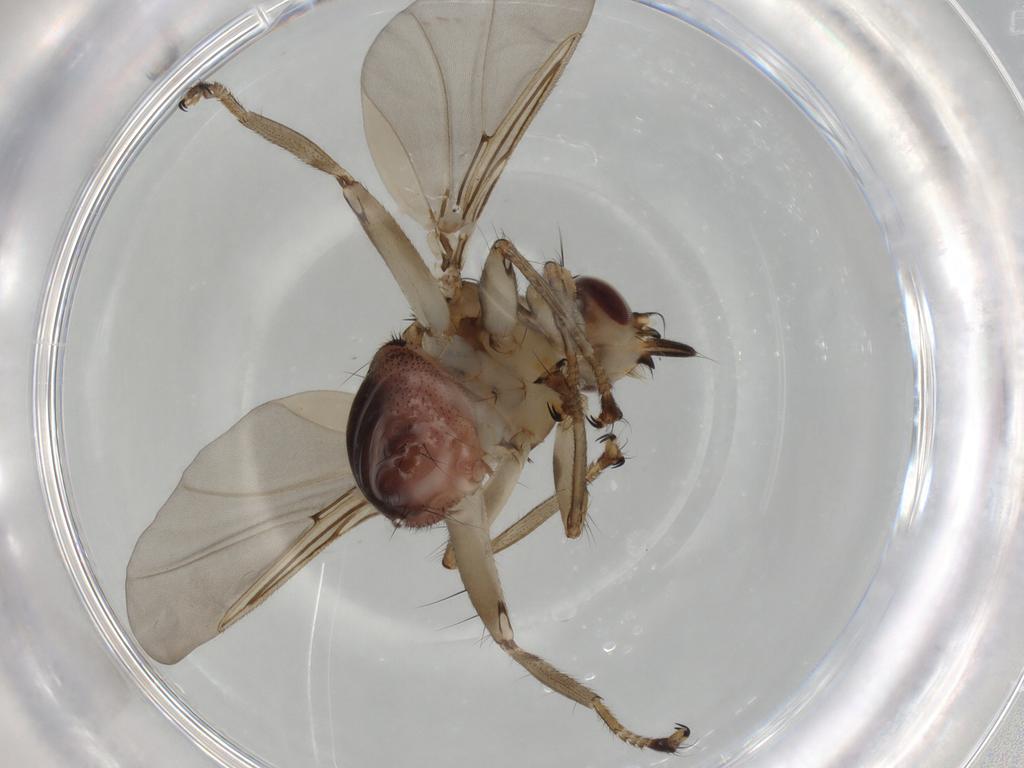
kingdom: Animalia
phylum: Arthropoda
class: Insecta
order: Diptera
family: Hippoboscidae
